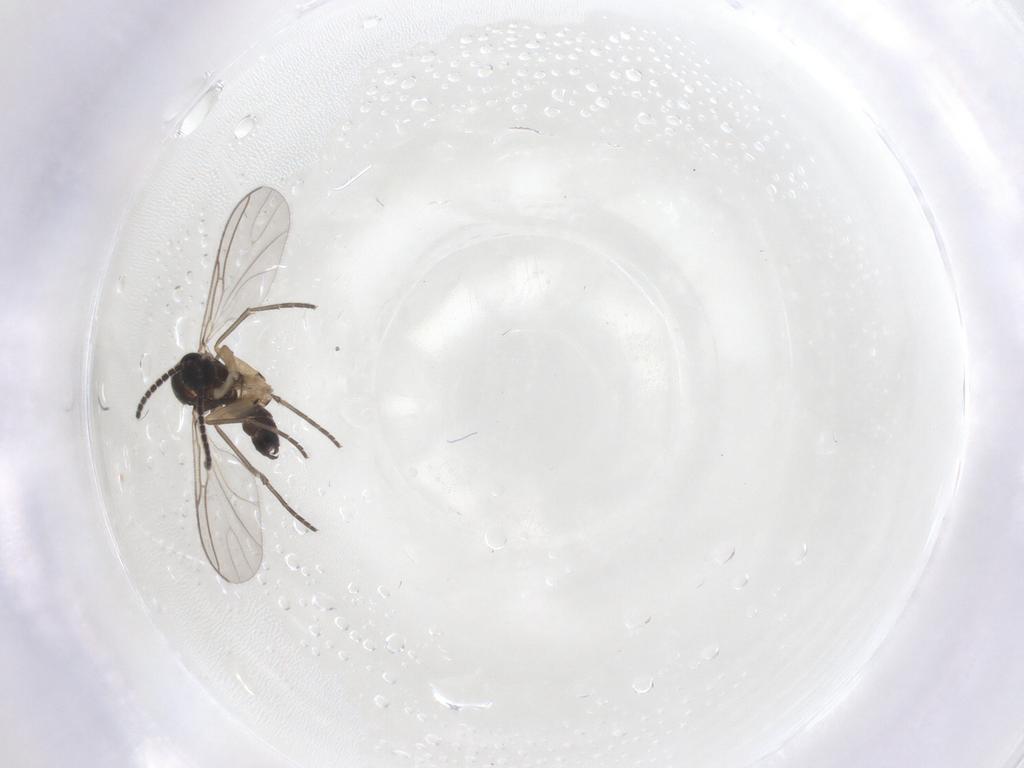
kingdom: Animalia
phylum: Arthropoda
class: Insecta
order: Diptera
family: Sciaridae
